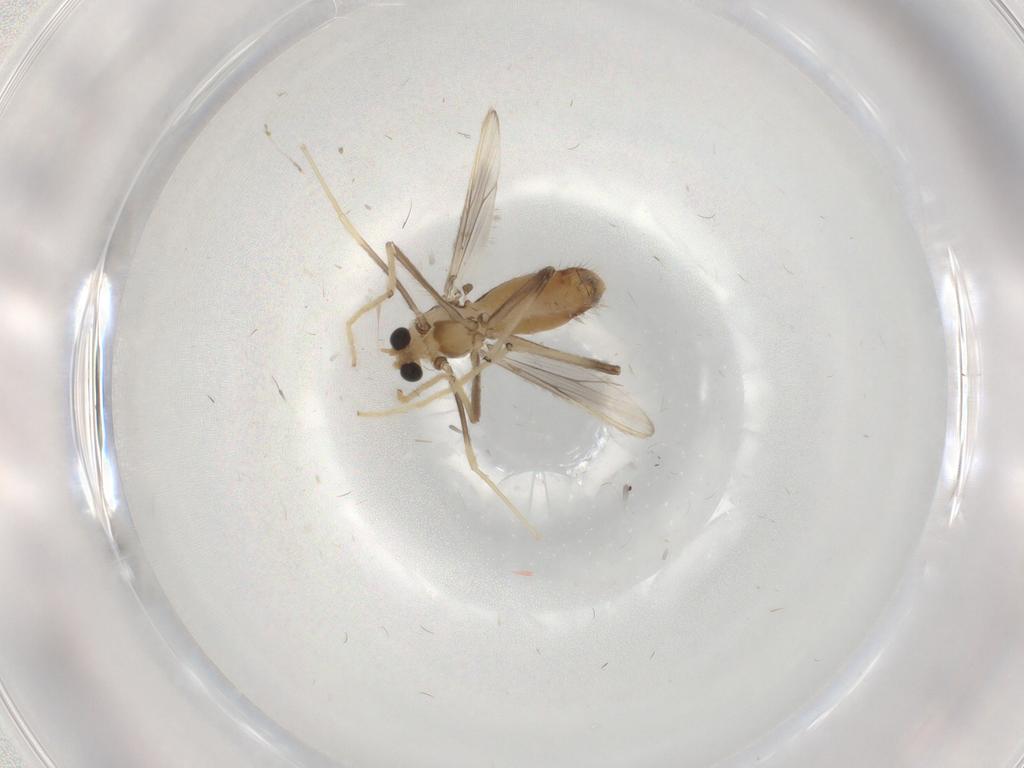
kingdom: Animalia
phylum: Arthropoda
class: Insecta
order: Diptera
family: Chironomidae
